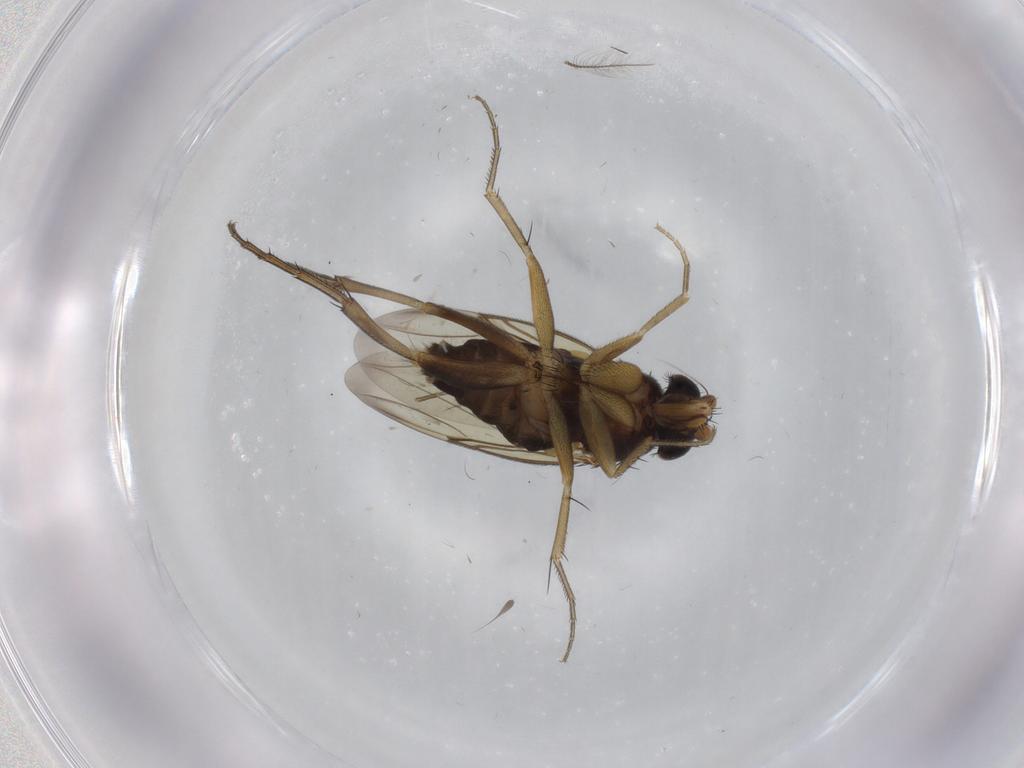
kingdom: Animalia
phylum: Arthropoda
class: Insecta
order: Diptera
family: Phoridae
